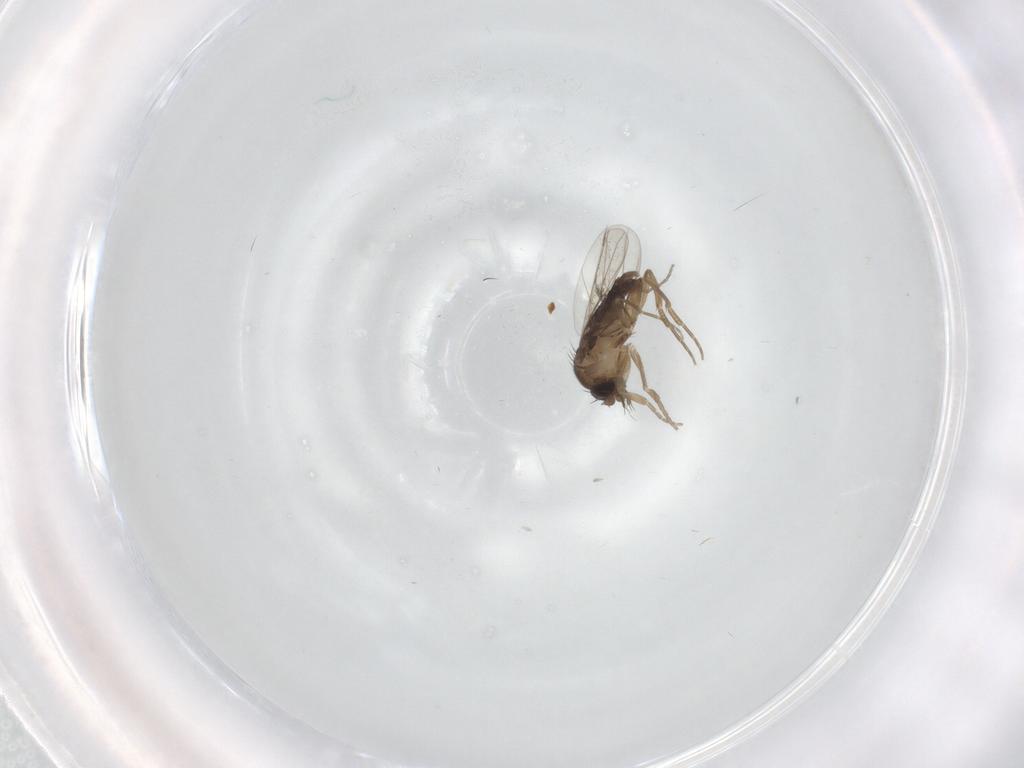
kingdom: Animalia
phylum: Arthropoda
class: Insecta
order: Diptera
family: Phoridae
